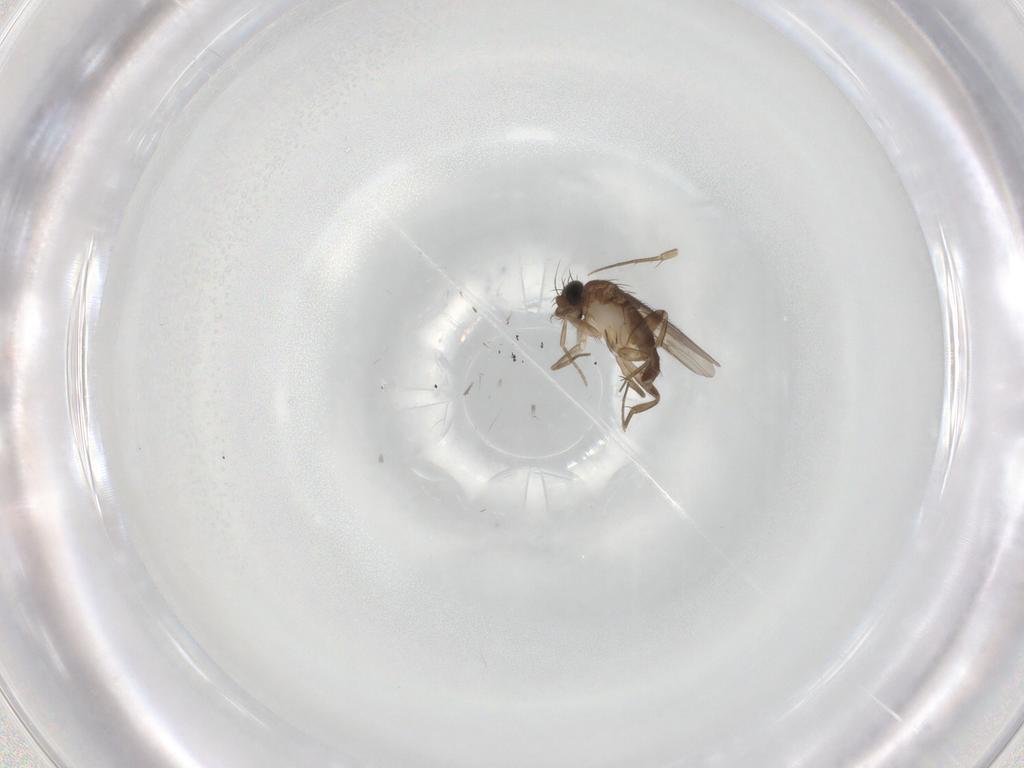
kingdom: Animalia
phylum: Arthropoda
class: Insecta
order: Diptera
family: Phoridae
